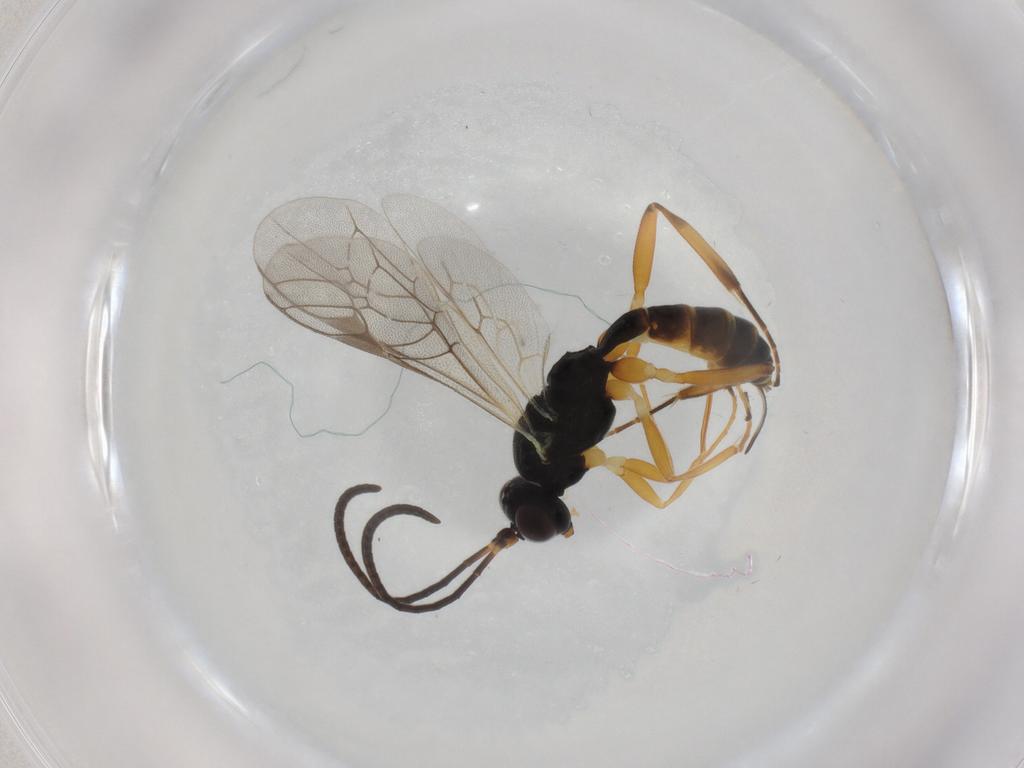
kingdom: Animalia
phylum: Arthropoda
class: Insecta
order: Hymenoptera
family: Ichneumonidae
